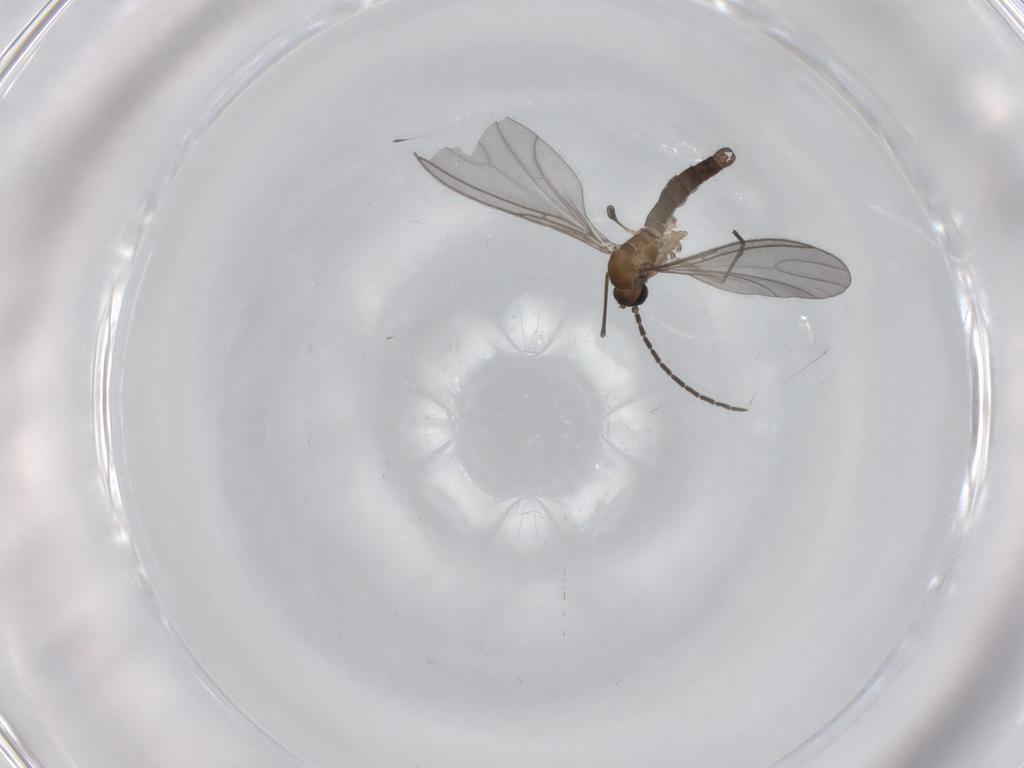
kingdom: Animalia
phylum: Arthropoda
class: Insecta
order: Diptera
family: Sciaridae
